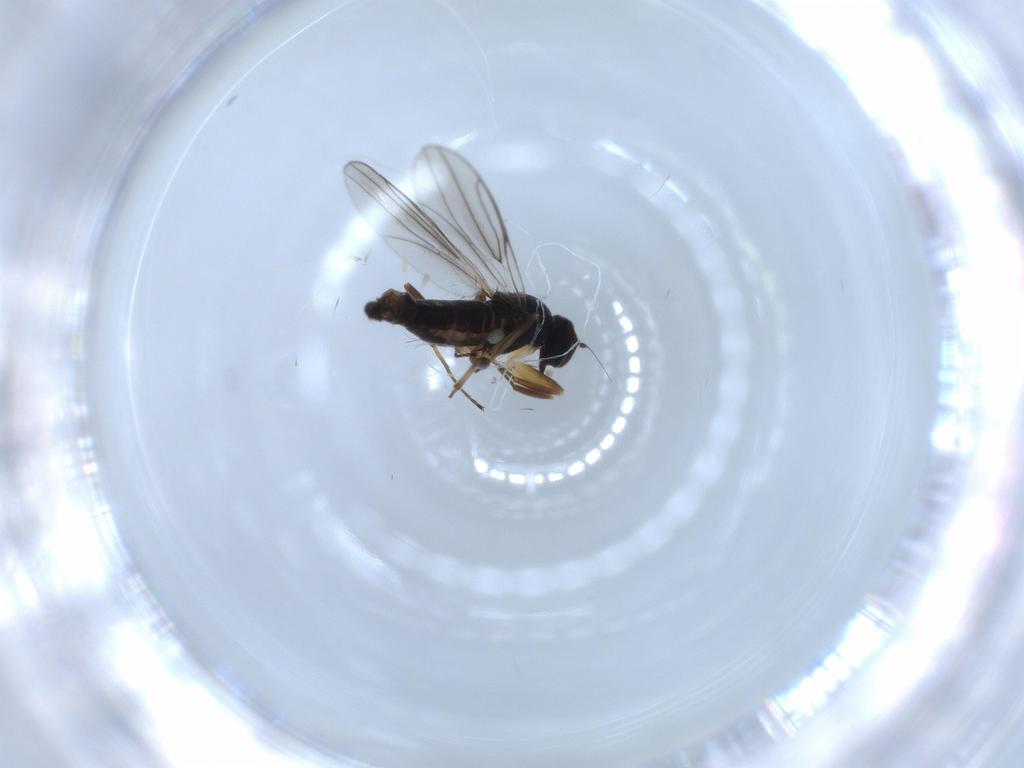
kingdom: Animalia
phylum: Arthropoda
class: Insecta
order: Diptera
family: Hybotidae
